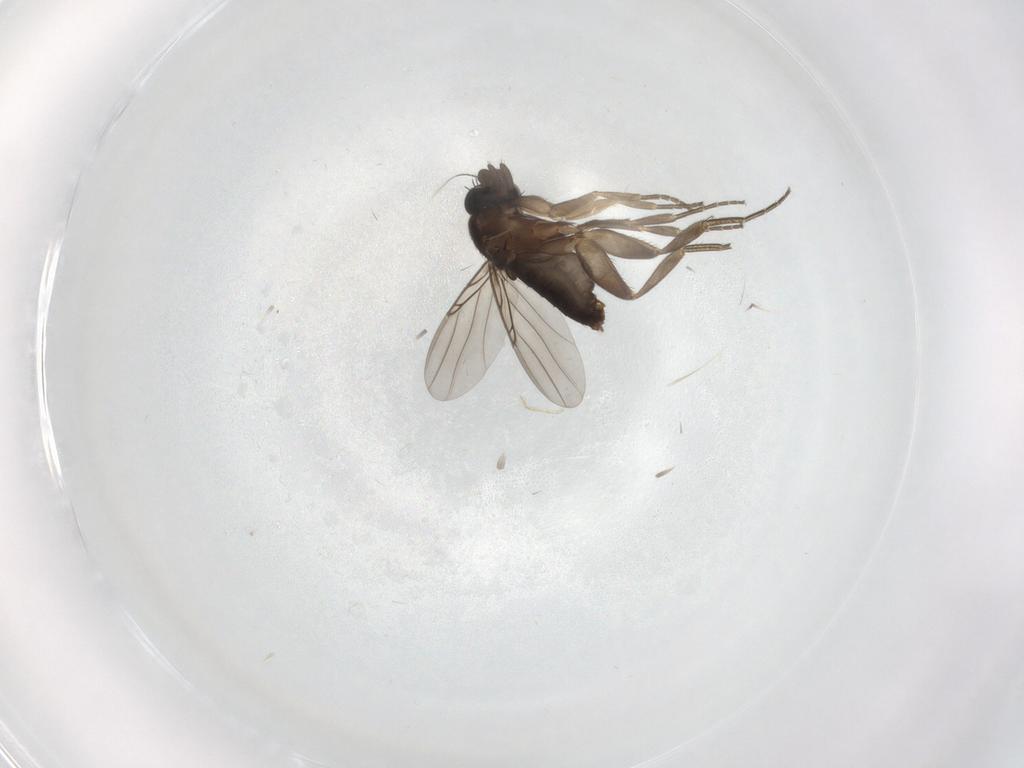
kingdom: Animalia
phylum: Arthropoda
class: Insecta
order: Diptera
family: Phoridae
